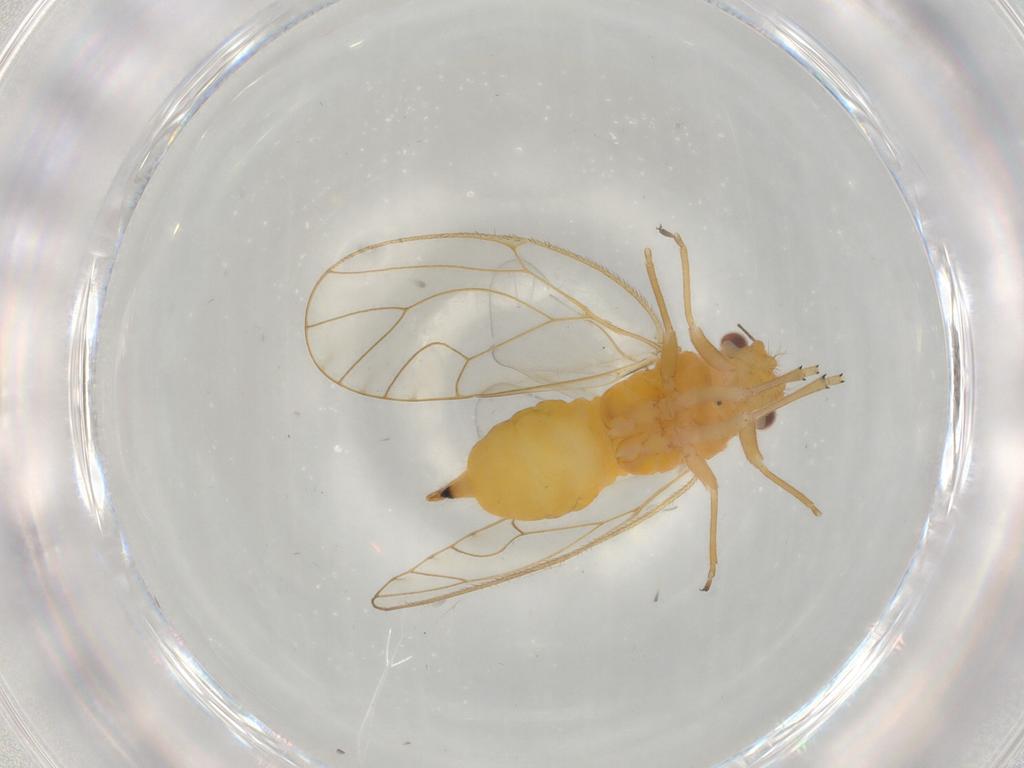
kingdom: Animalia
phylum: Arthropoda
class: Insecta
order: Hemiptera
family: Psyllidae
